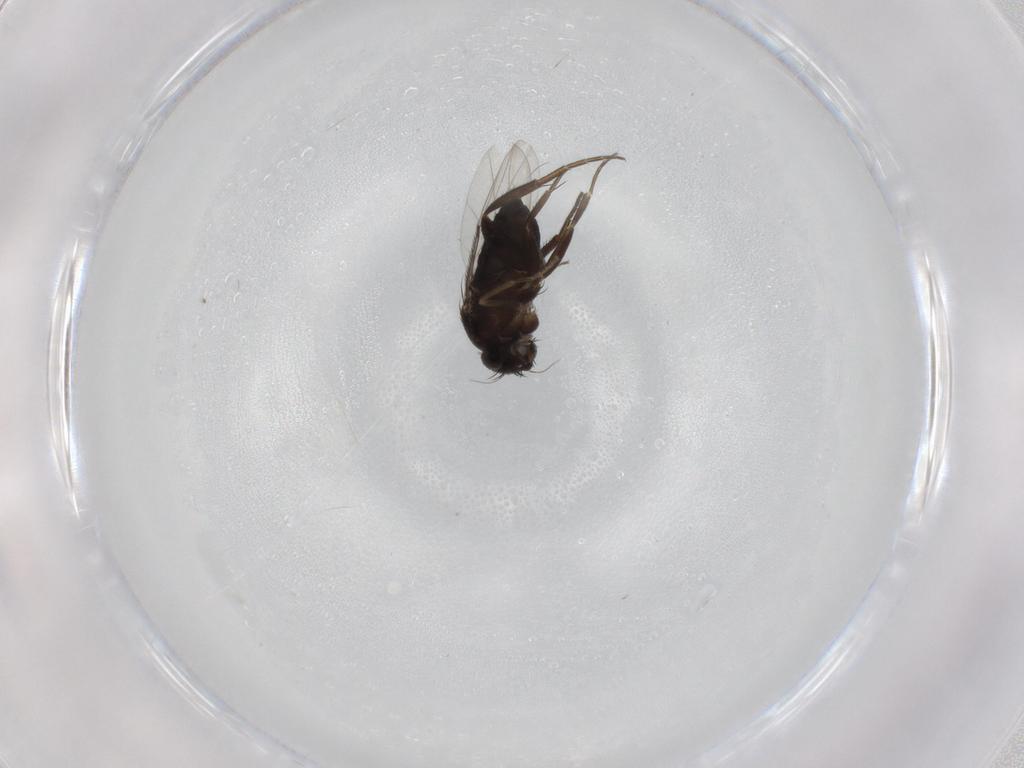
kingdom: Animalia
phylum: Arthropoda
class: Insecta
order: Diptera
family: Phoridae
